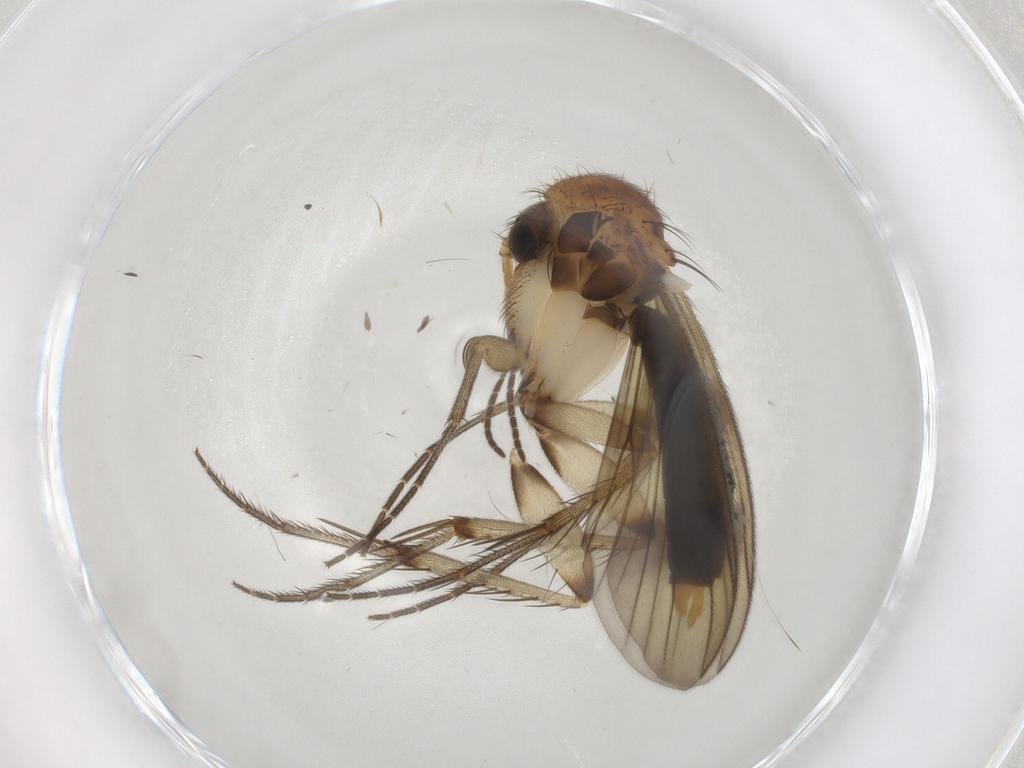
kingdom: Animalia
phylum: Arthropoda
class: Insecta
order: Diptera
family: Mycetophilidae
